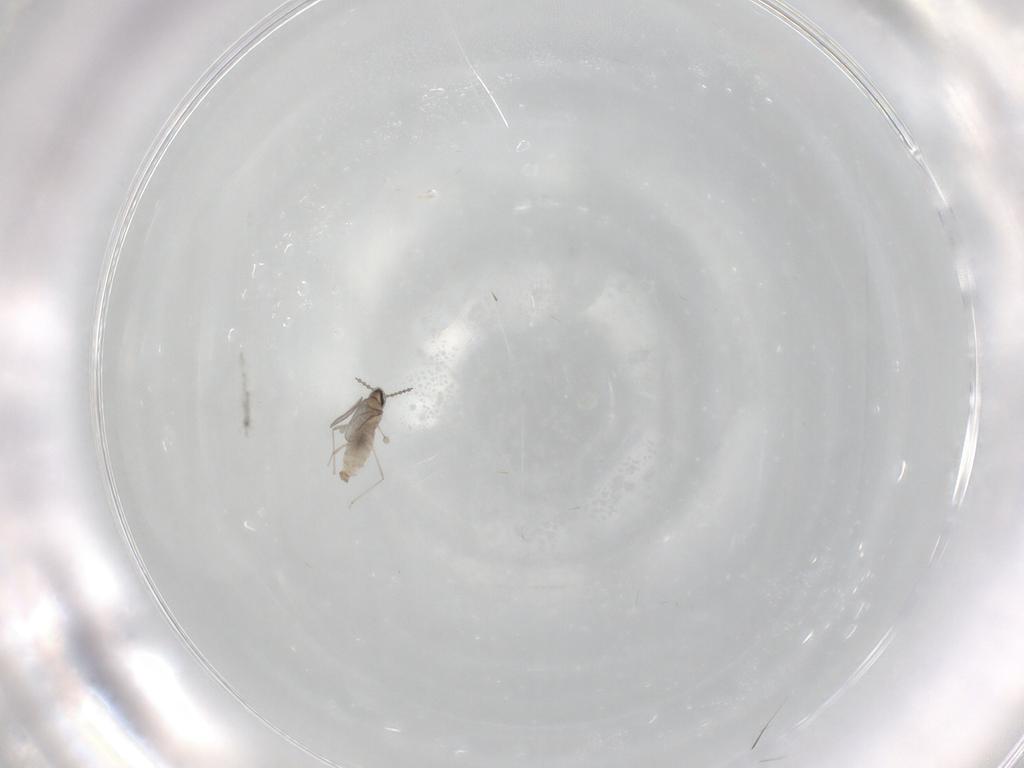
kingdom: Animalia
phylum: Arthropoda
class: Insecta
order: Diptera
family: Cecidomyiidae
